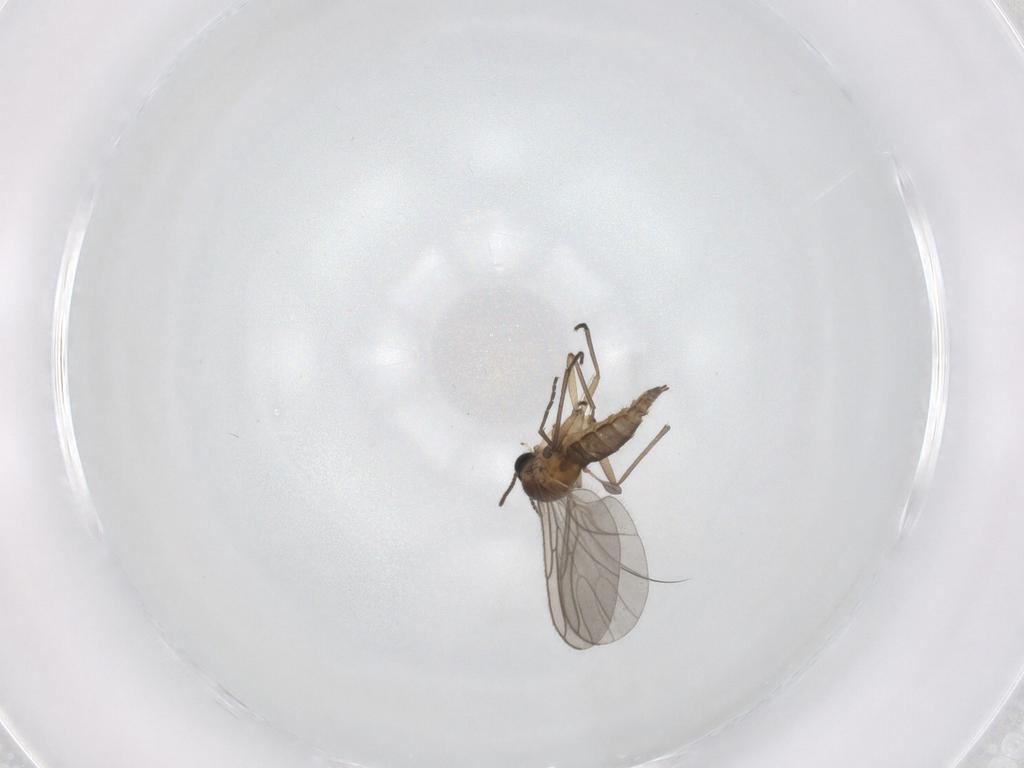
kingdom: Animalia
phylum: Arthropoda
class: Insecta
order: Diptera
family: Sciaridae
